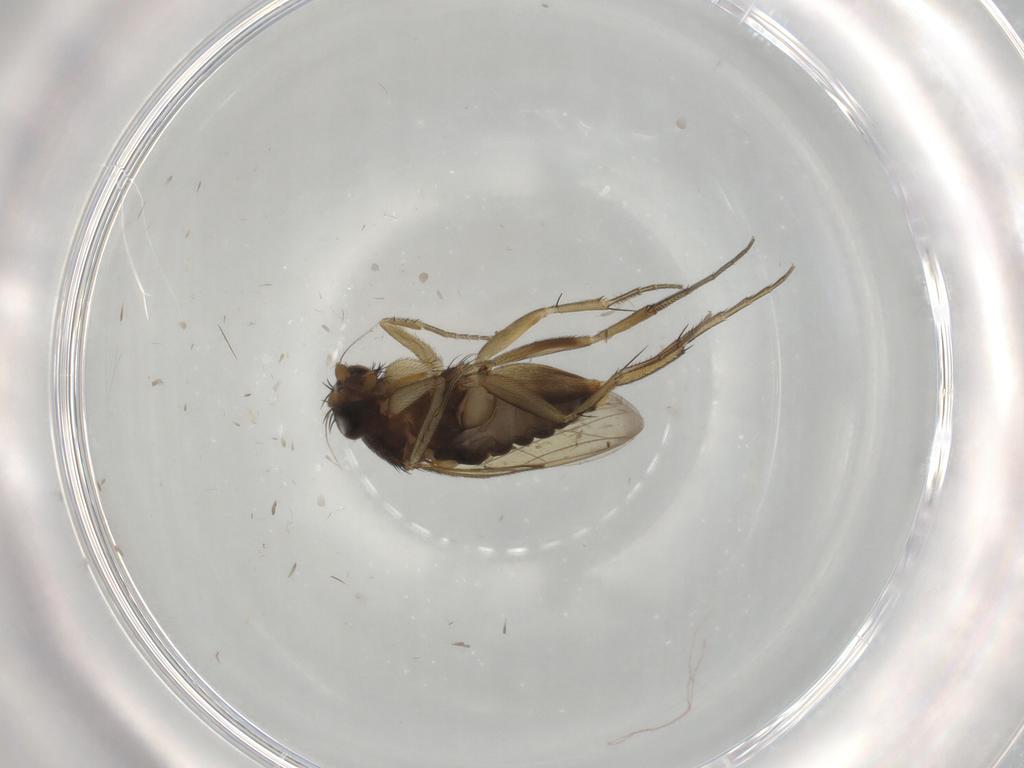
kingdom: Animalia
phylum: Arthropoda
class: Insecta
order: Diptera
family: Phoridae
